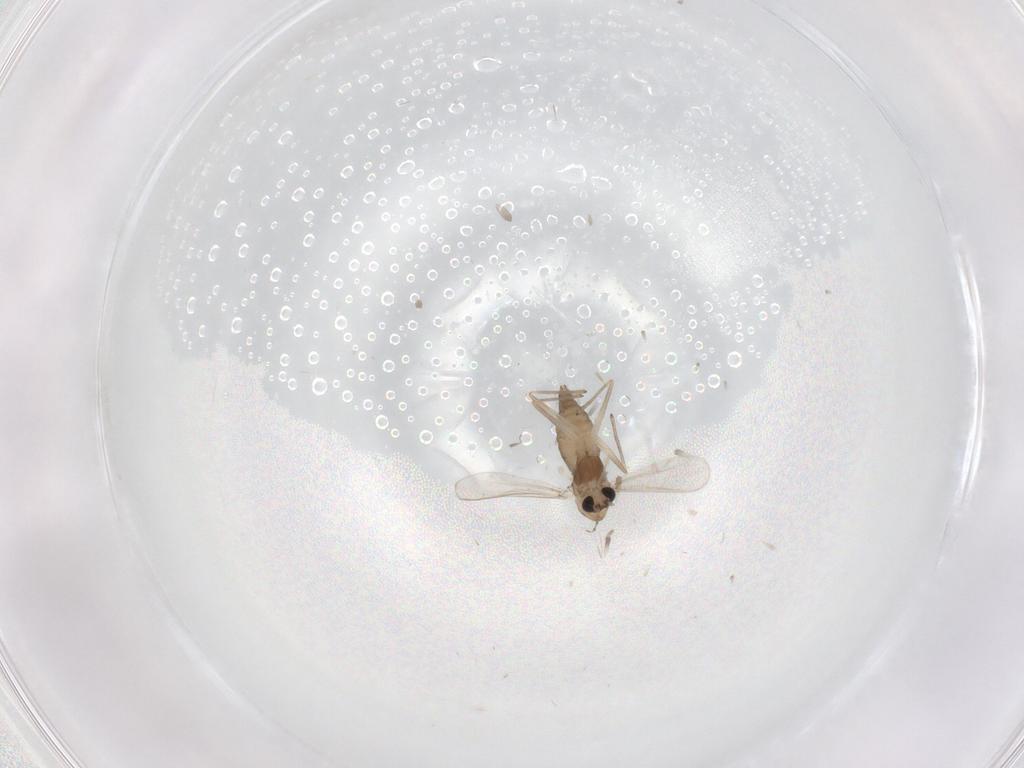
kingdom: Animalia
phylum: Arthropoda
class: Insecta
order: Diptera
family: Chironomidae
